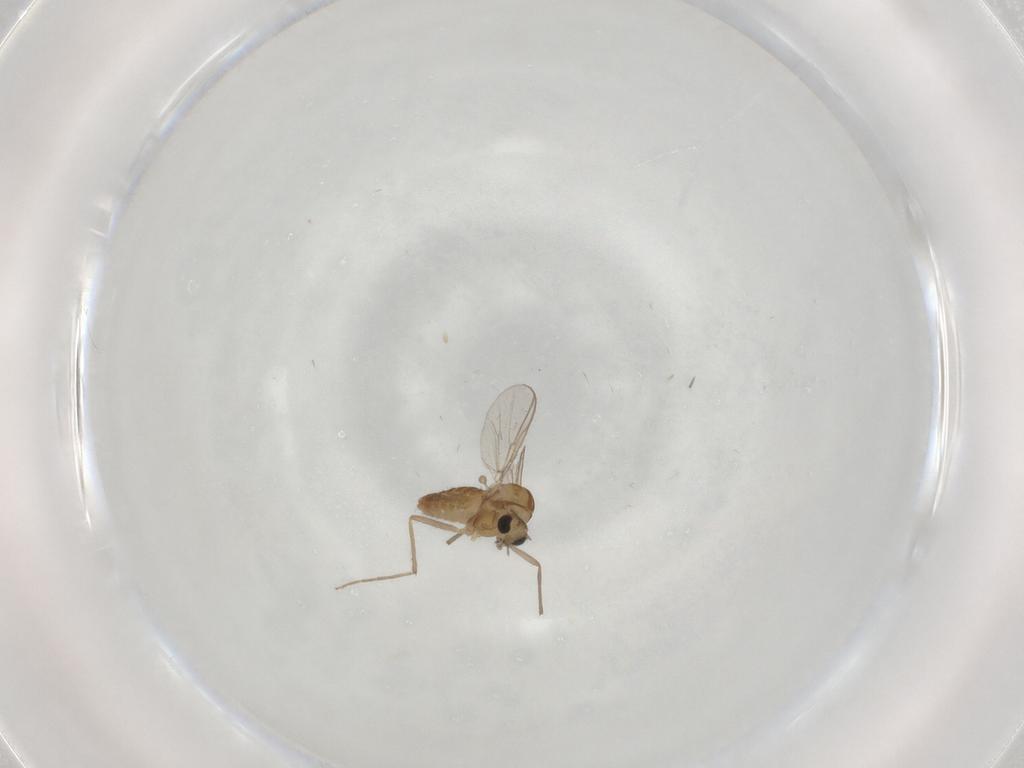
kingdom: Animalia
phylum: Arthropoda
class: Insecta
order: Diptera
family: Chironomidae
